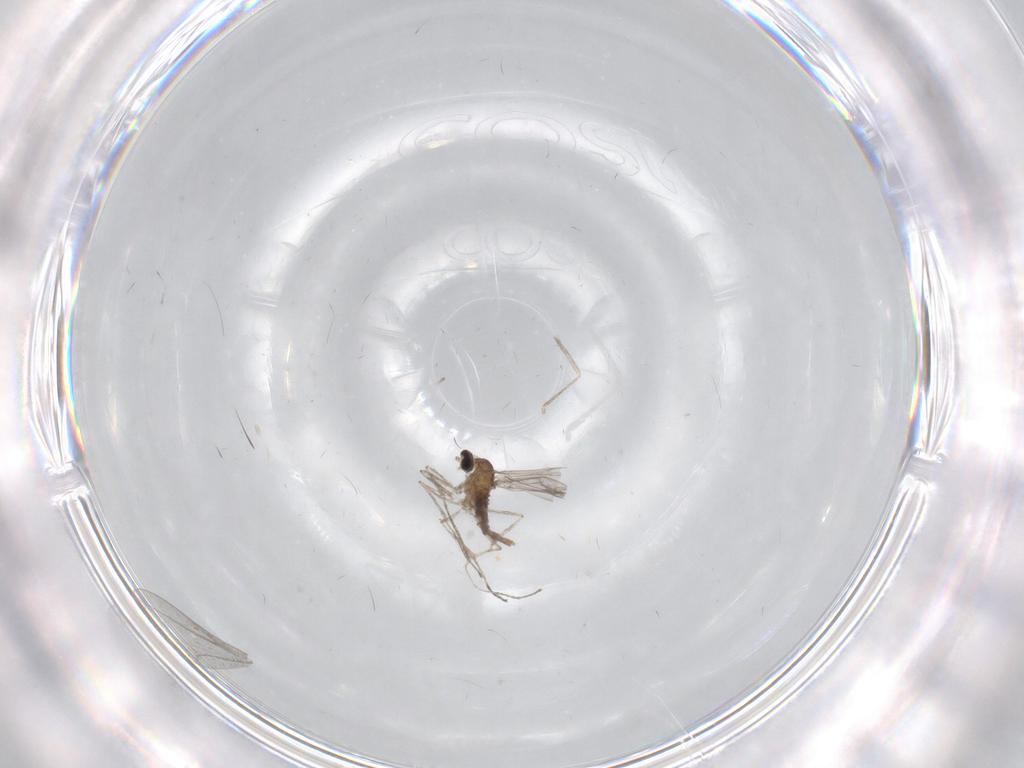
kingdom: Animalia
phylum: Arthropoda
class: Insecta
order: Diptera
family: Cecidomyiidae
